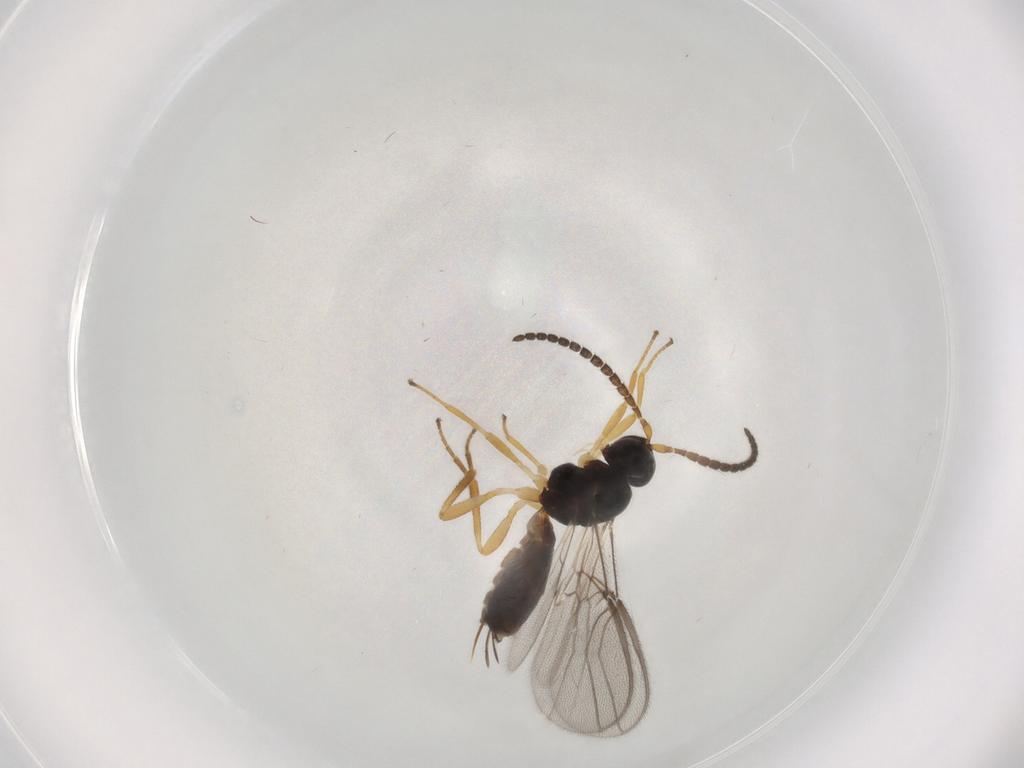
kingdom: Animalia
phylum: Arthropoda
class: Insecta
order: Hymenoptera
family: Braconidae
